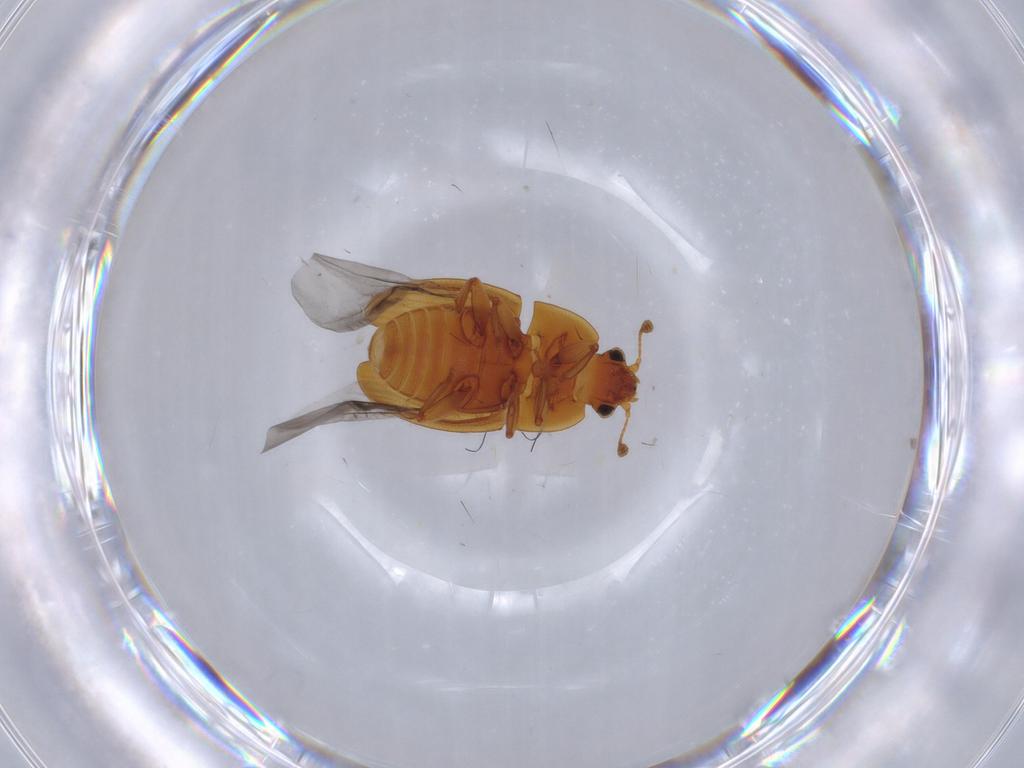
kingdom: Animalia
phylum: Arthropoda
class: Insecta
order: Coleoptera
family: Nitidulidae
